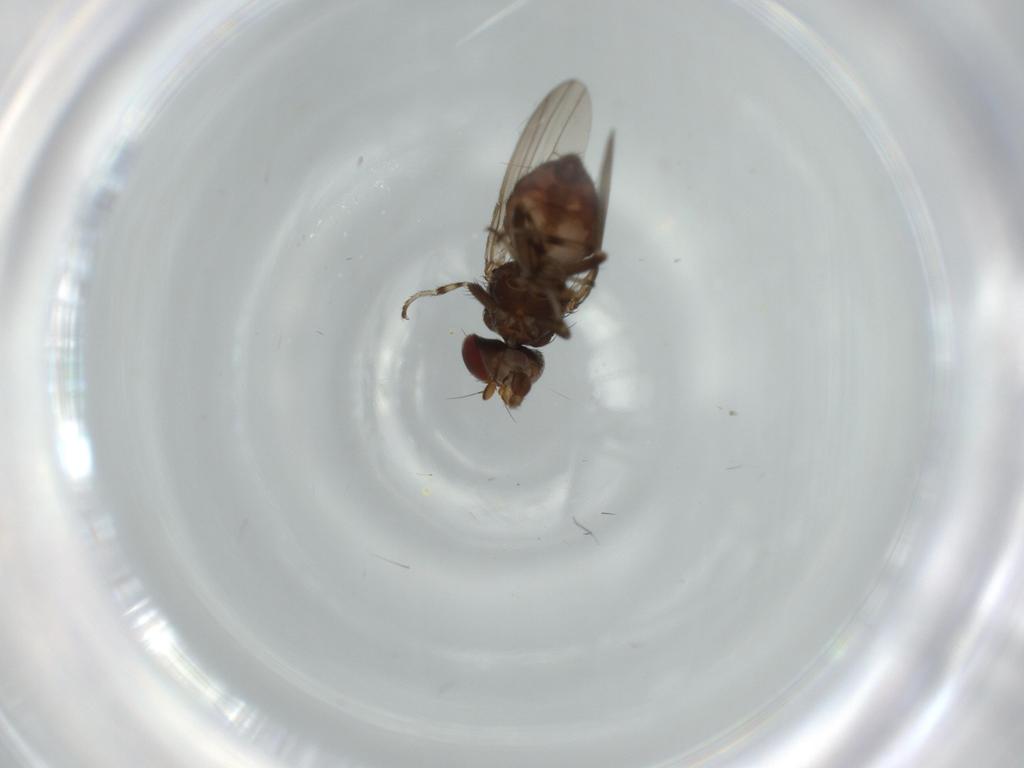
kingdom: Animalia
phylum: Arthropoda
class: Insecta
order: Diptera
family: Heleomyzidae
